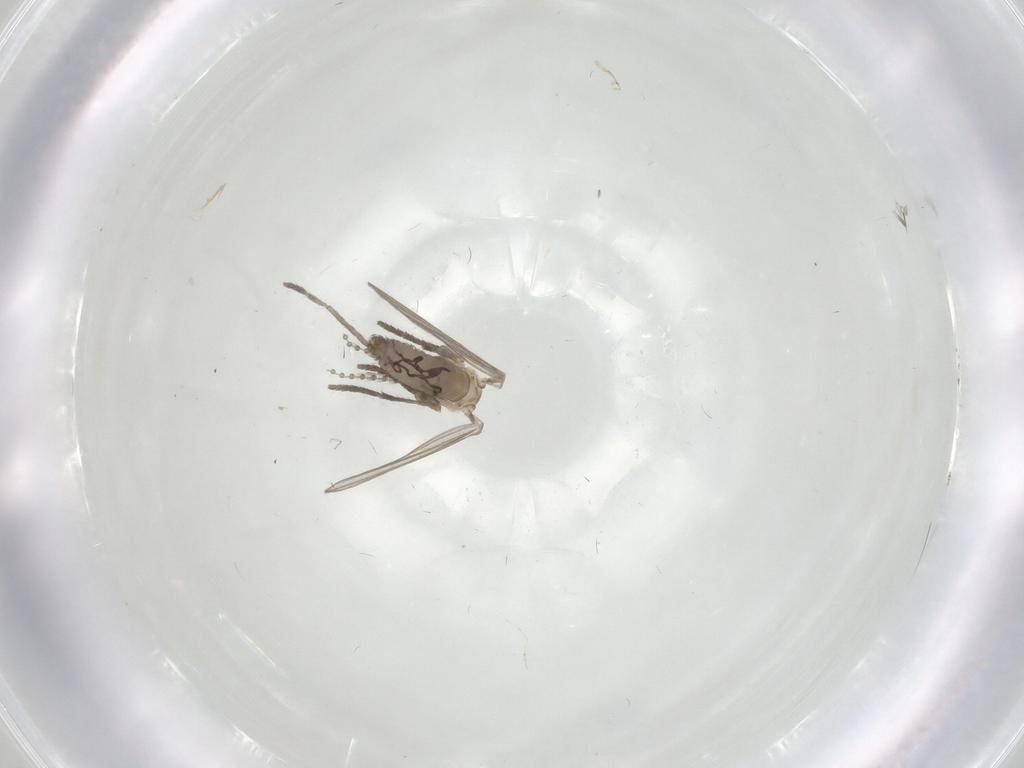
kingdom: Animalia
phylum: Arthropoda
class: Insecta
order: Diptera
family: Psychodidae
